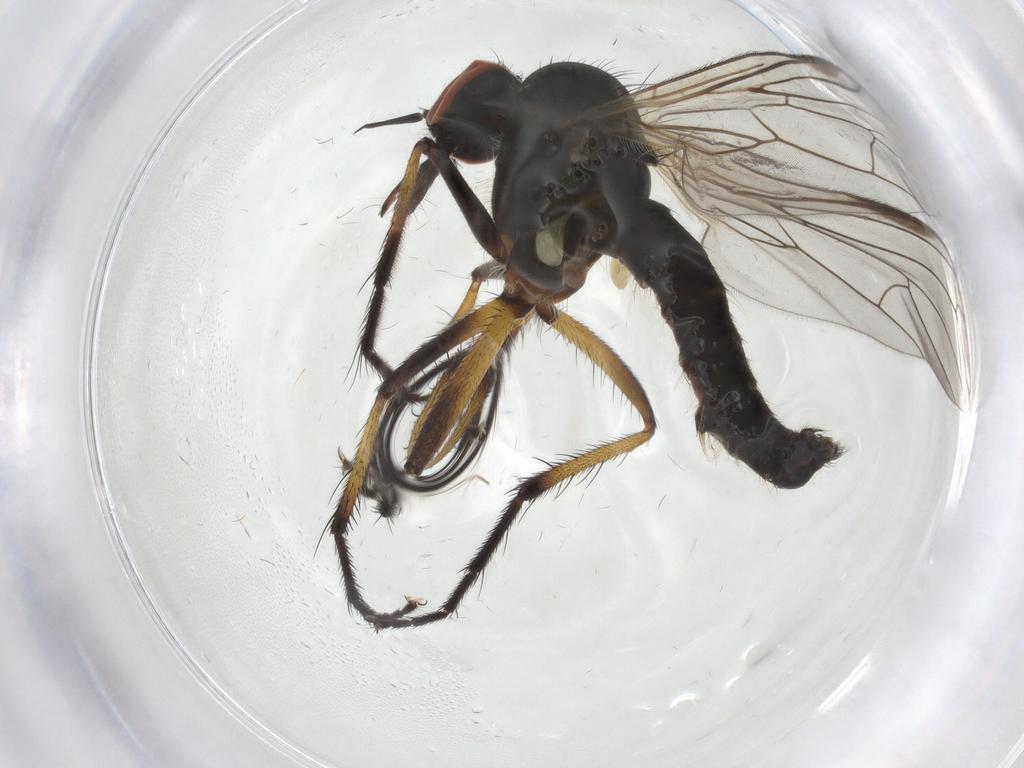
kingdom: Animalia
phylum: Arthropoda
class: Insecta
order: Diptera
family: Empididae
